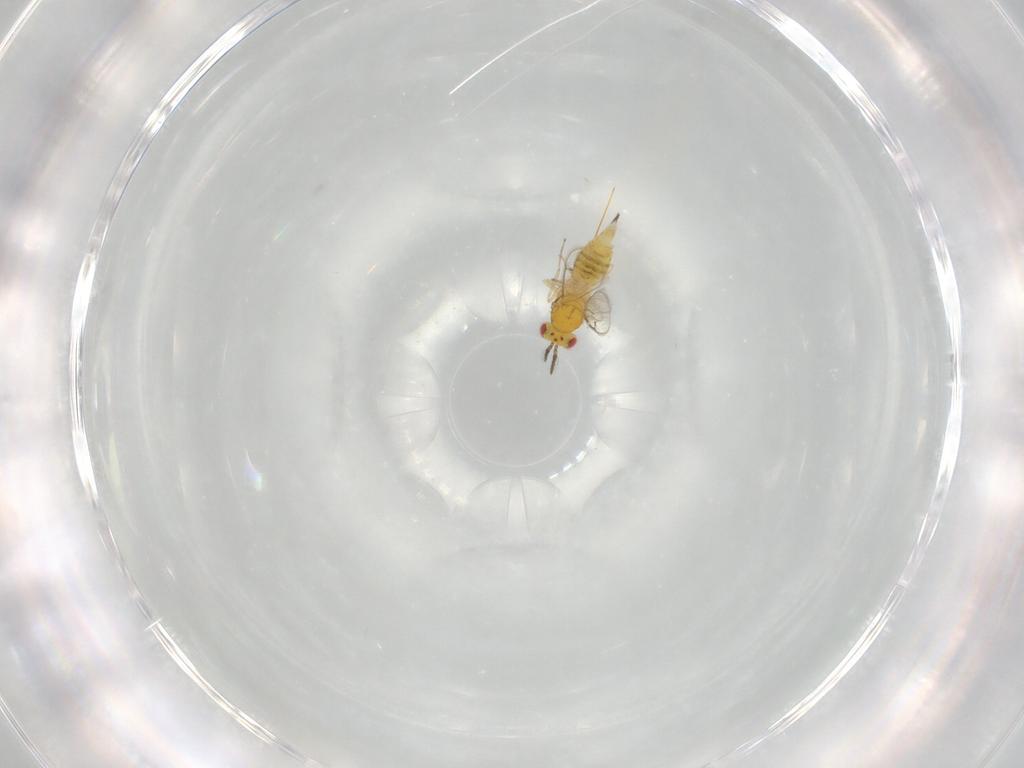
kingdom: Animalia
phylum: Arthropoda
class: Insecta
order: Hymenoptera
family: Eulophidae
